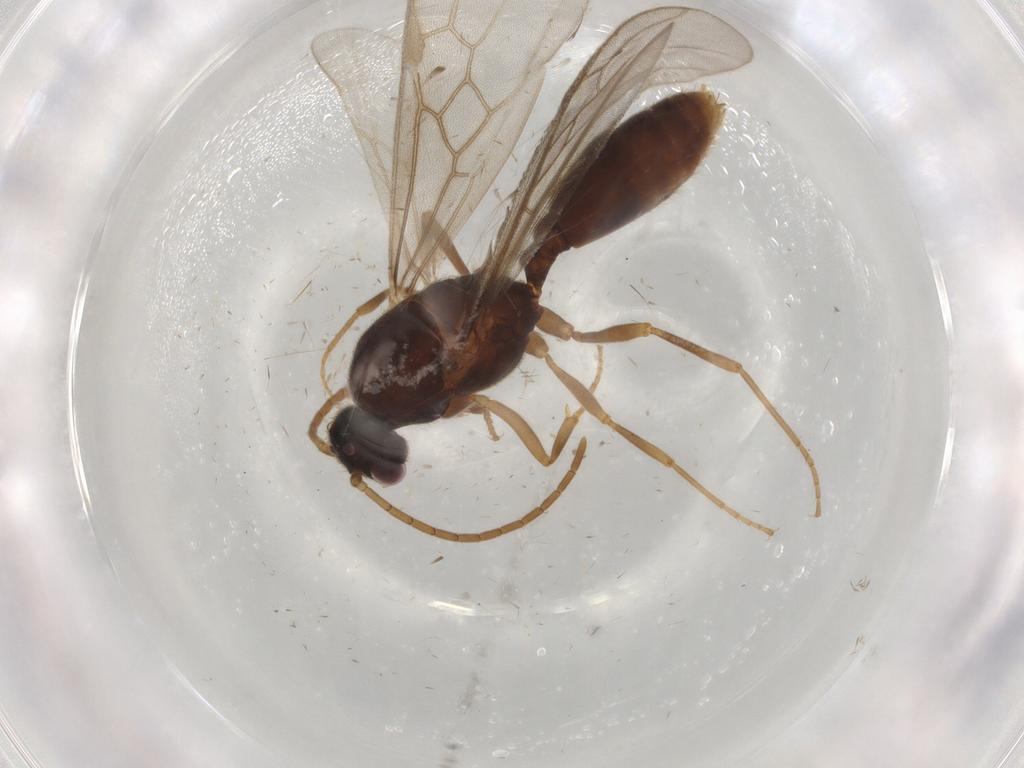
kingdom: Animalia
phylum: Arthropoda
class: Insecta
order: Hymenoptera
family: Formicidae
